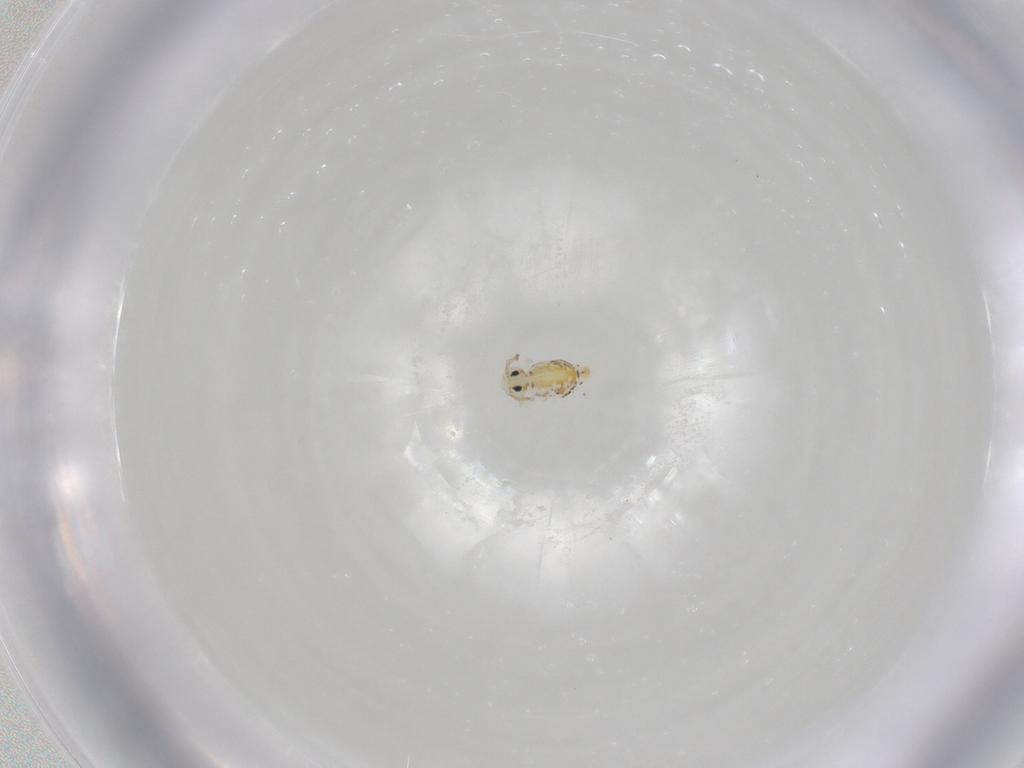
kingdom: Animalia
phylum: Arthropoda
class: Collembola
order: Symphypleona
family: Bourletiellidae
